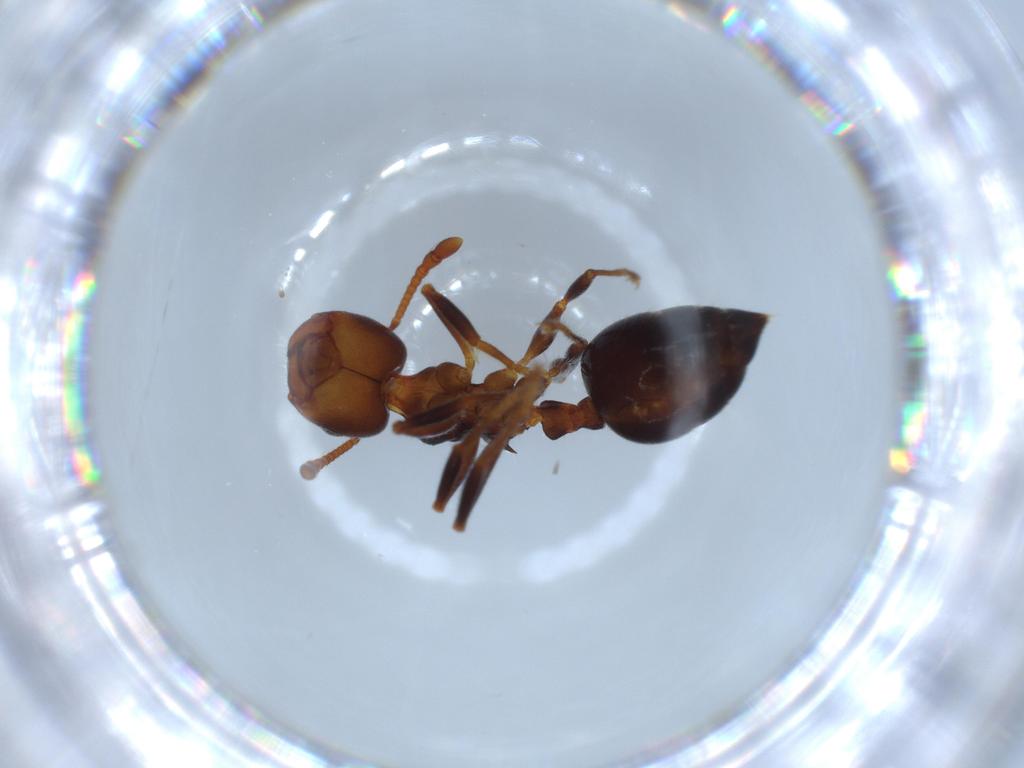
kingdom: Animalia
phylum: Arthropoda
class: Insecta
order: Hymenoptera
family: Formicidae
